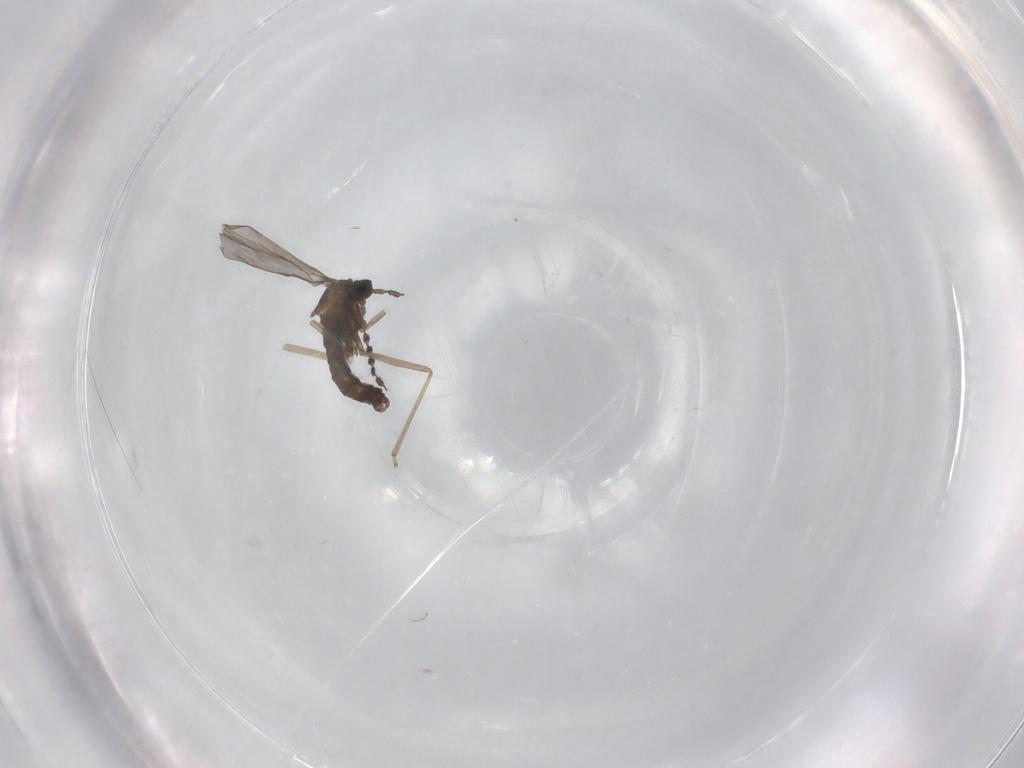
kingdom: Animalia
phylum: Arthropoda
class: Insecta
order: Diptera
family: Cecidomyiidae
